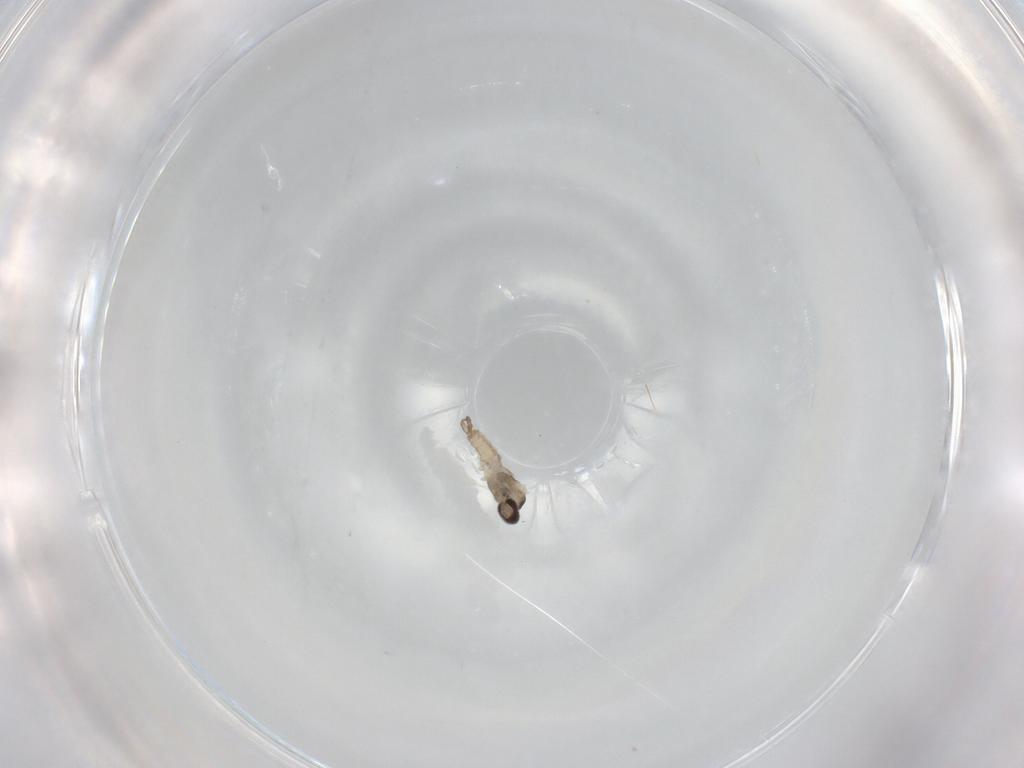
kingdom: Animalia
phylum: Arthropoda
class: Insecta
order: Diptera
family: Cecidomyiidae
